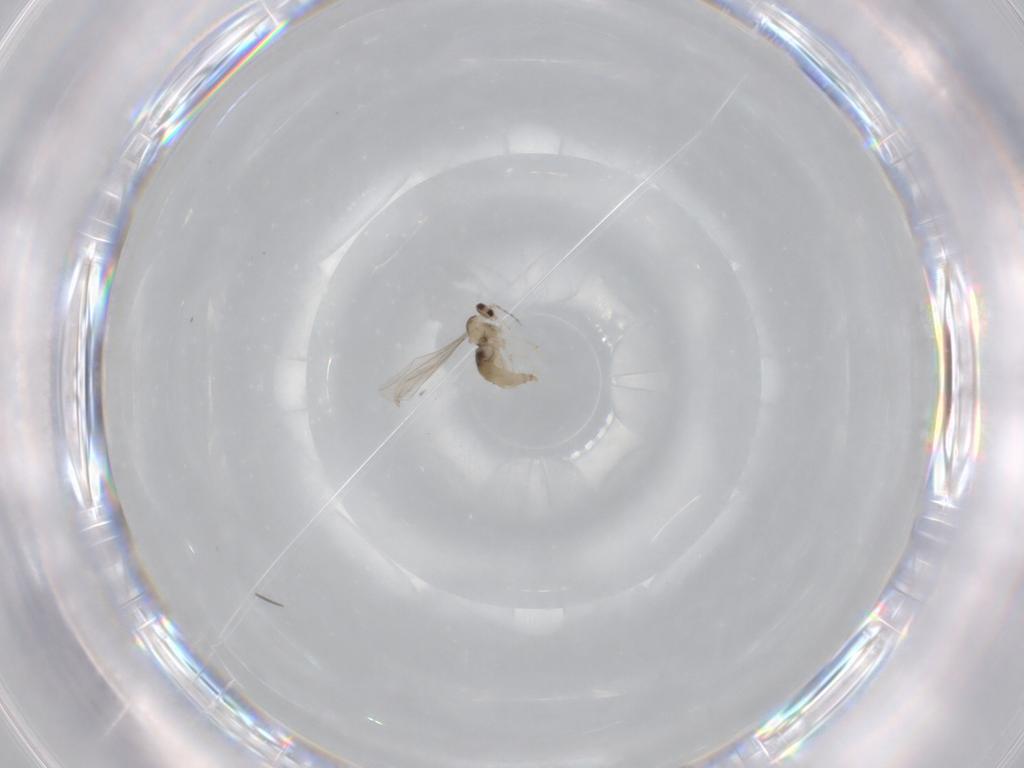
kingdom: Animalia
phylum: Arthropoda
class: Insecta
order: Diptera
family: Cecidomyiidae
